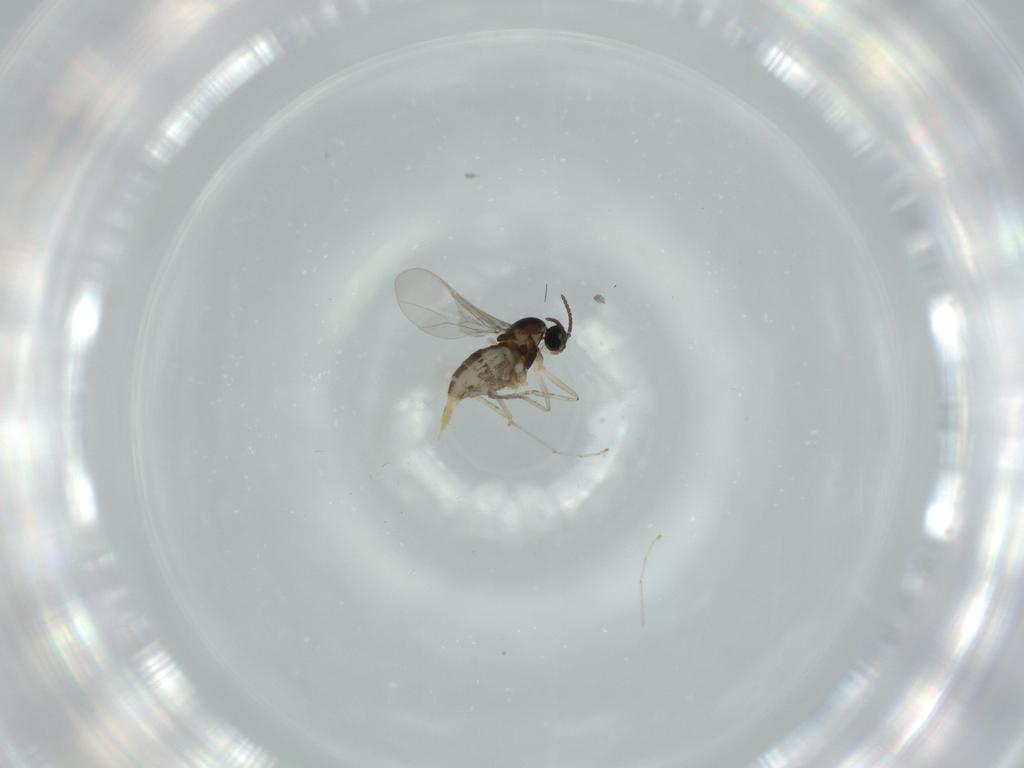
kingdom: Animalia
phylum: Arthropoda
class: Insecta
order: Diptera
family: Cecidomyiidae
